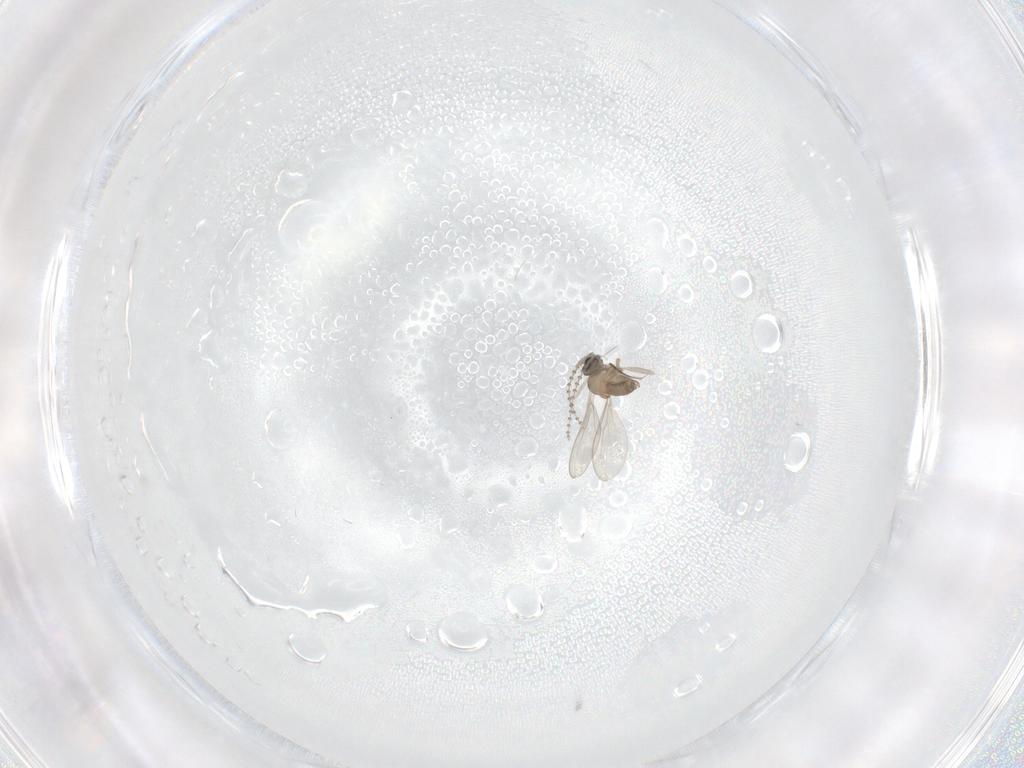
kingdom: Animalia
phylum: Arthropoda
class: Insecta
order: Diptera
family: Cecidomyiidae
